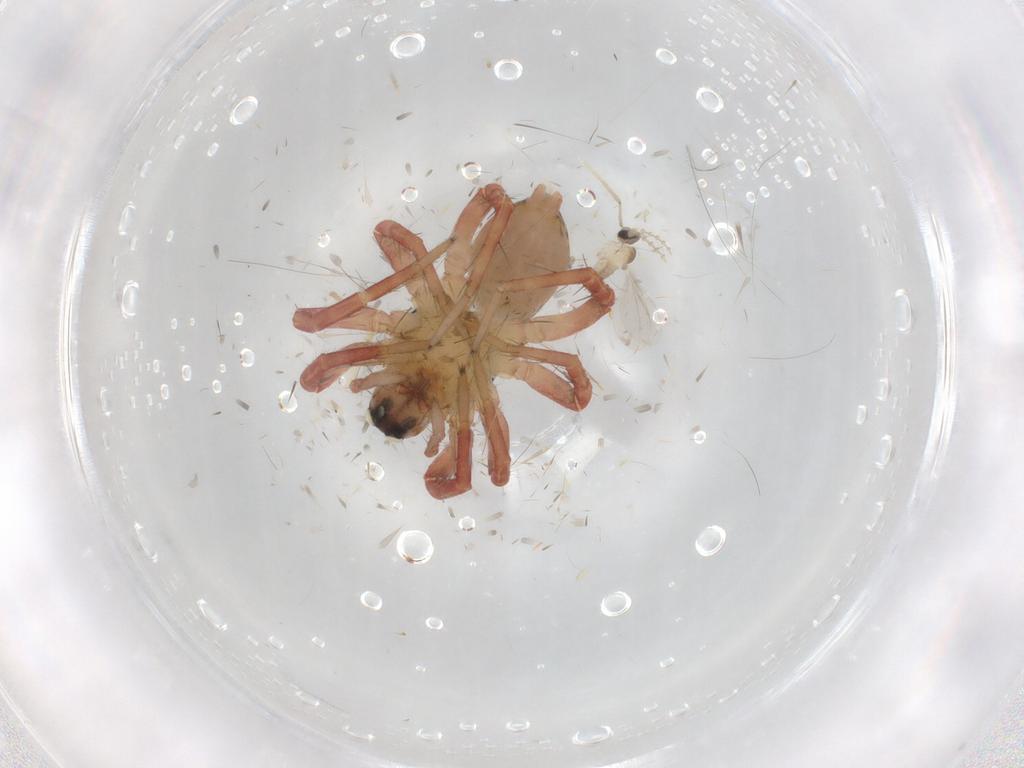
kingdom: Animalia
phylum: Arthropoda
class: Arachnida
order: Araneae
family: Lycosidae
